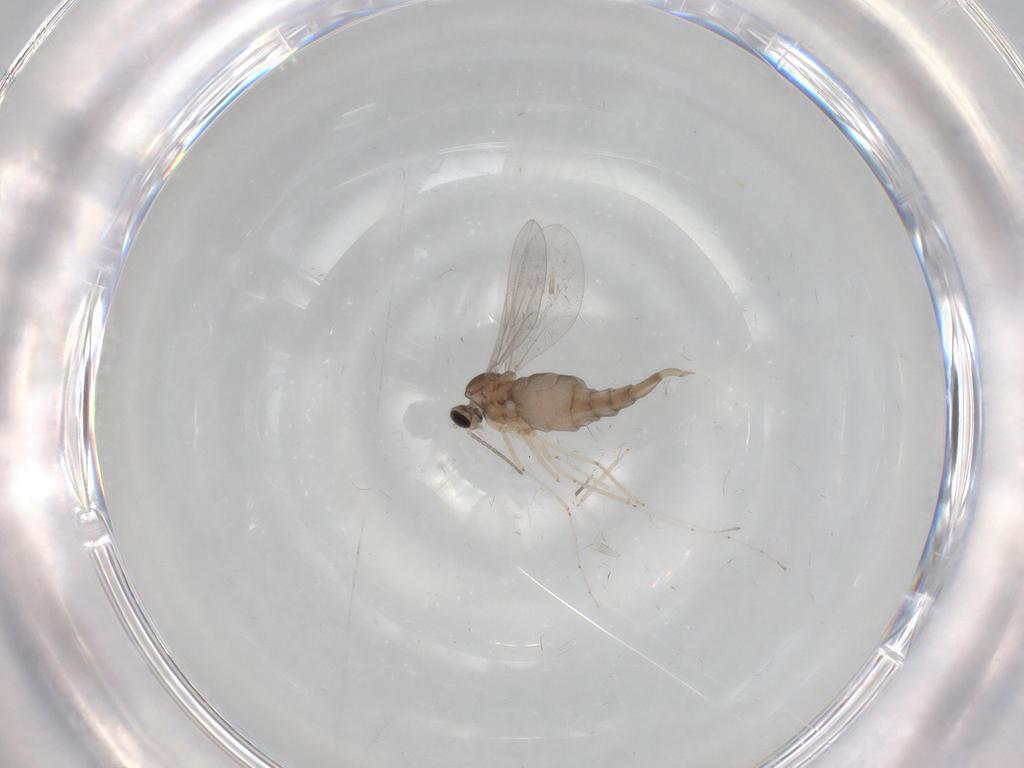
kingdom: Animalia
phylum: Arthropoda
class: Insecta
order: Diptera
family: Cecidomyiidae
